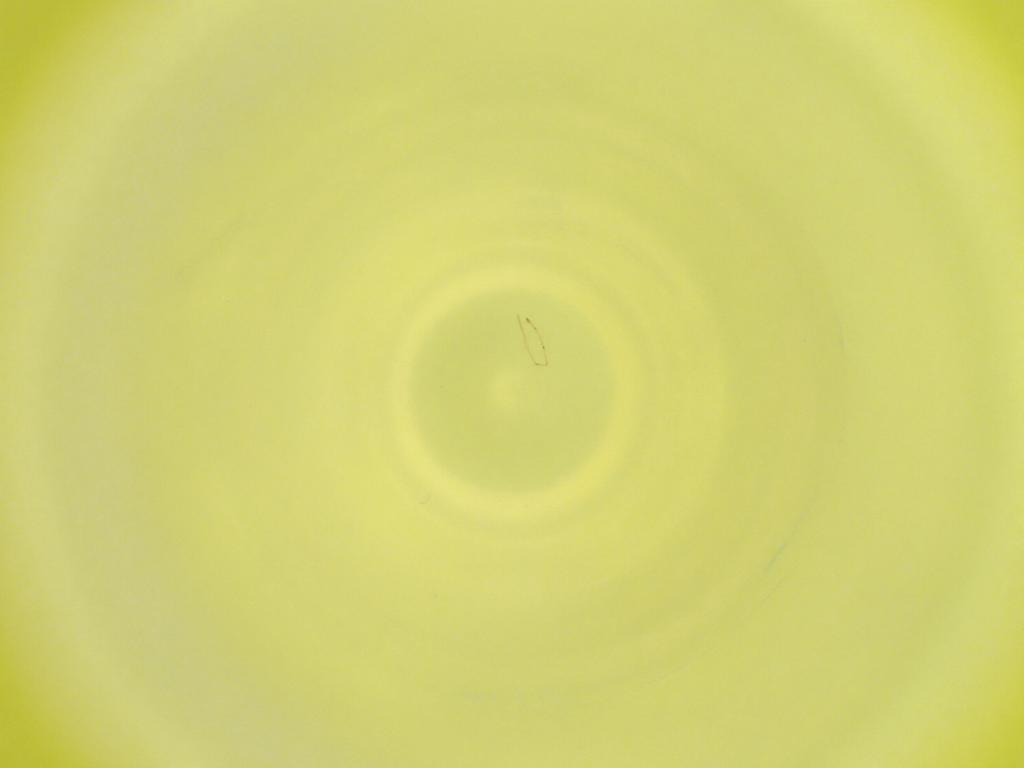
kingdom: Animalia
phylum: Arthropoda
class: Insecta
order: Diptera
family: Cecidomyiidae
